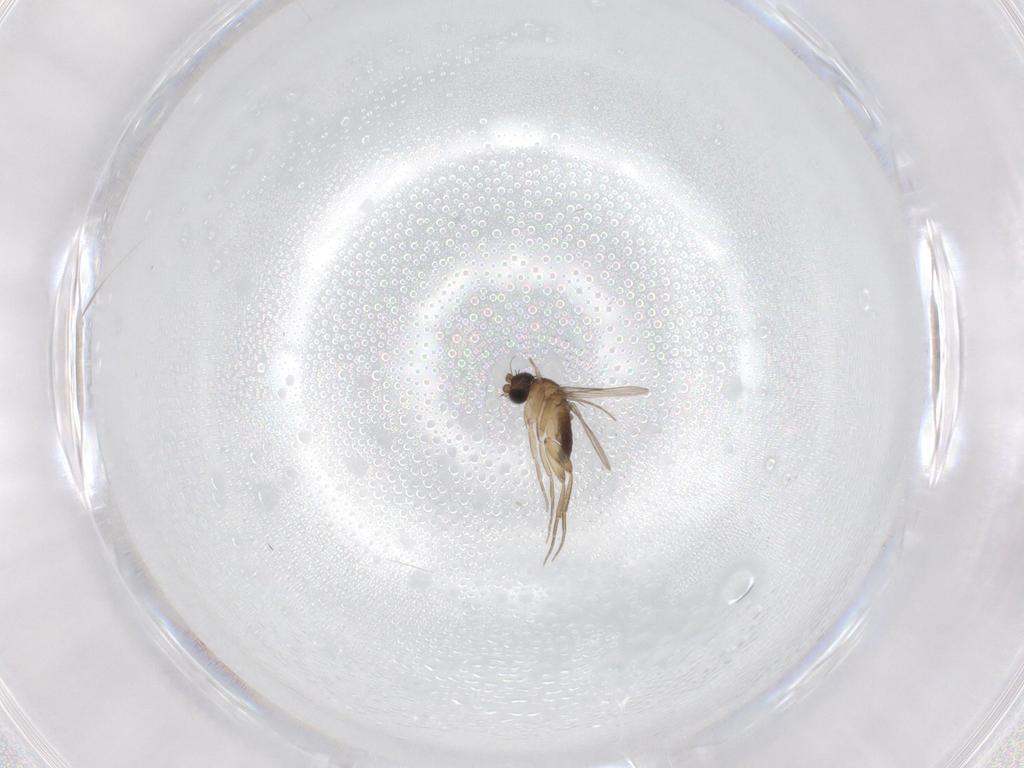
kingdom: Animalia
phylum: Arthropoda
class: Insecta
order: Diptera
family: Phoridae
